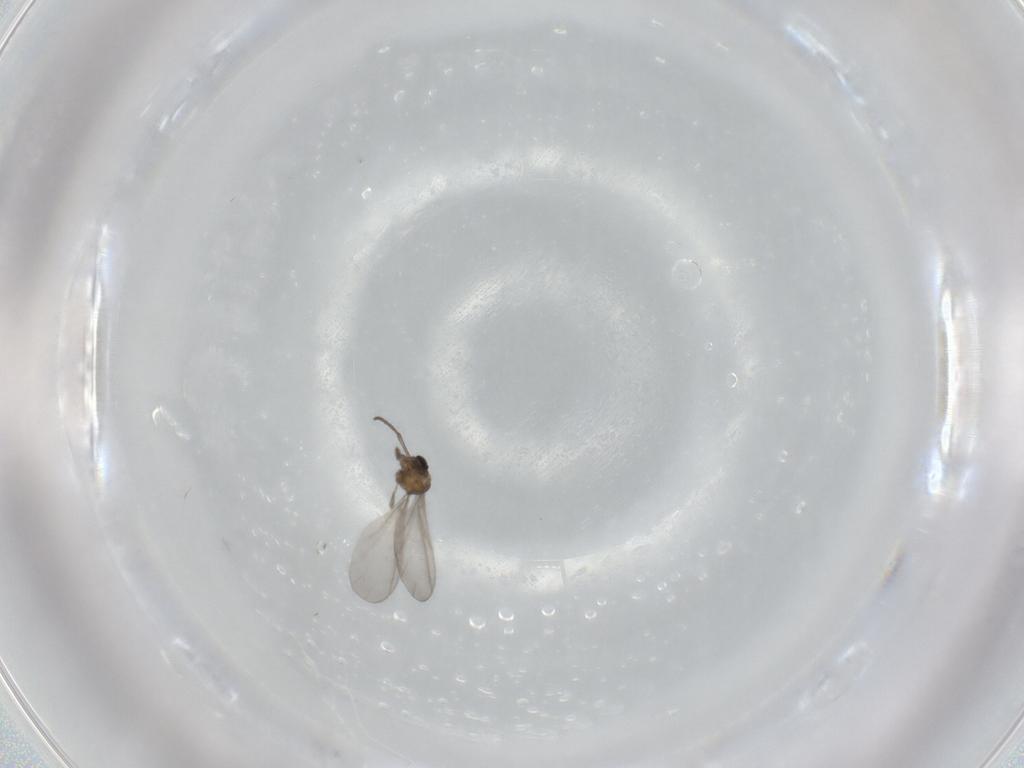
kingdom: Animalia
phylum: Arthropoda
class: Insecta
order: Diptera
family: Sciaridae
